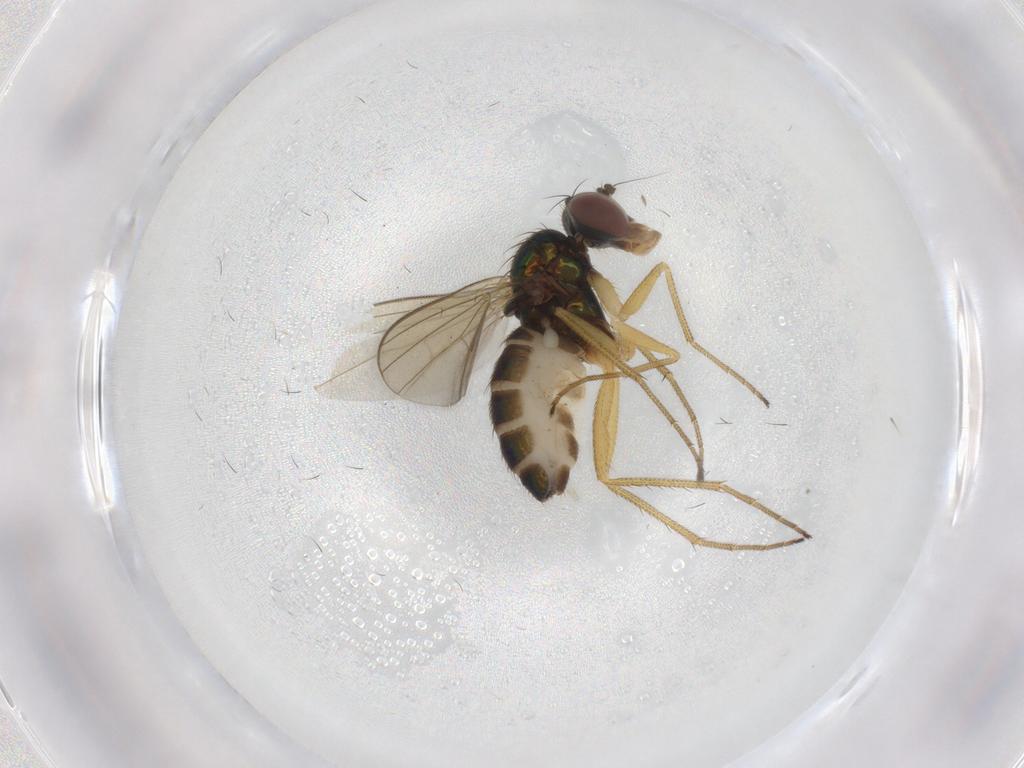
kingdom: Animalia
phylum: Arthropoda
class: Insecta
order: Diptera
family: Dolichopodidae
